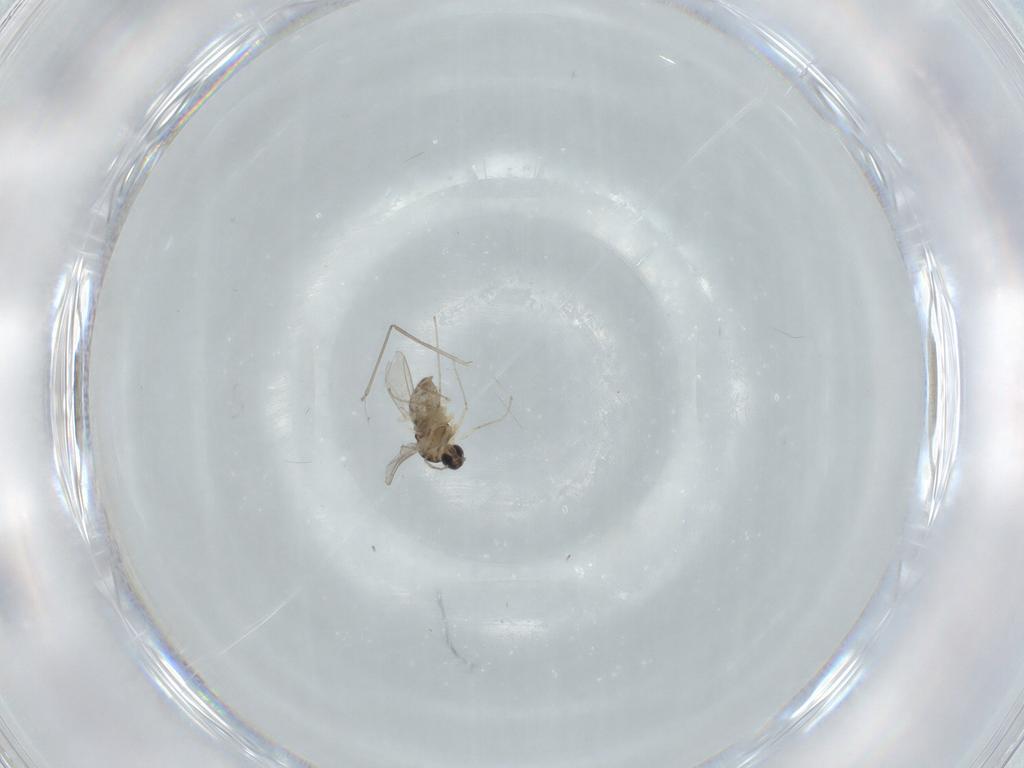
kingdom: Animalia
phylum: Arthropoda
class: Insecta
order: Diptera
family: Cecidomyiidae
